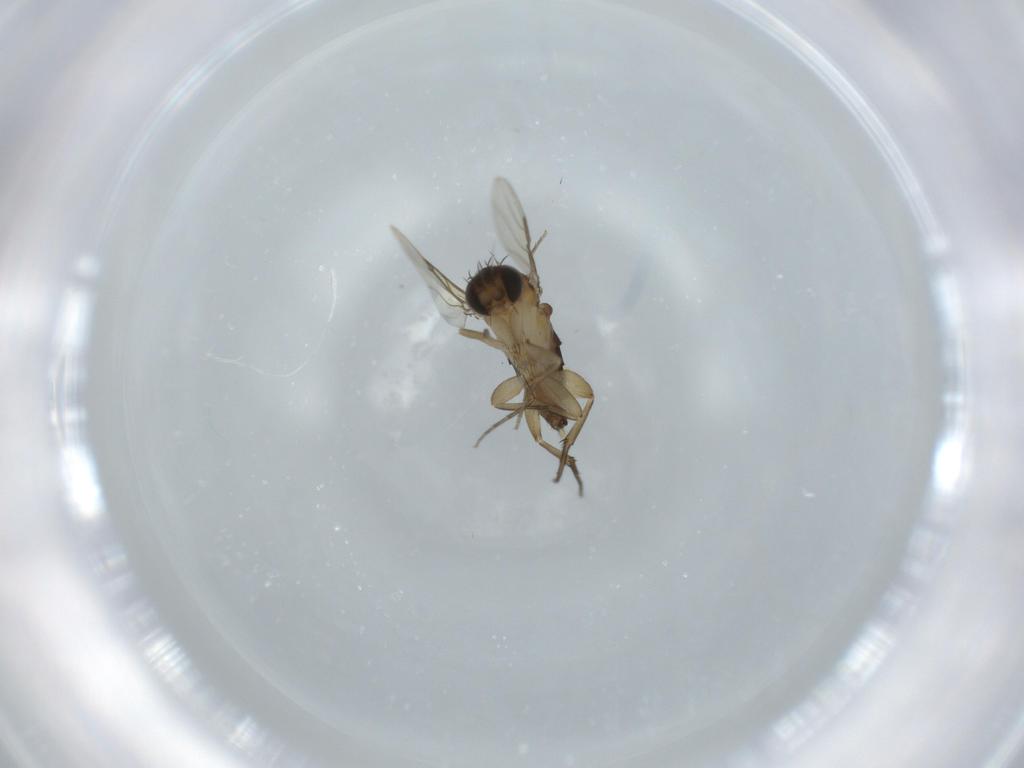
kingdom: Animalia
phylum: Arthropoda
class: Insecta
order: Diptera
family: Phoridae
